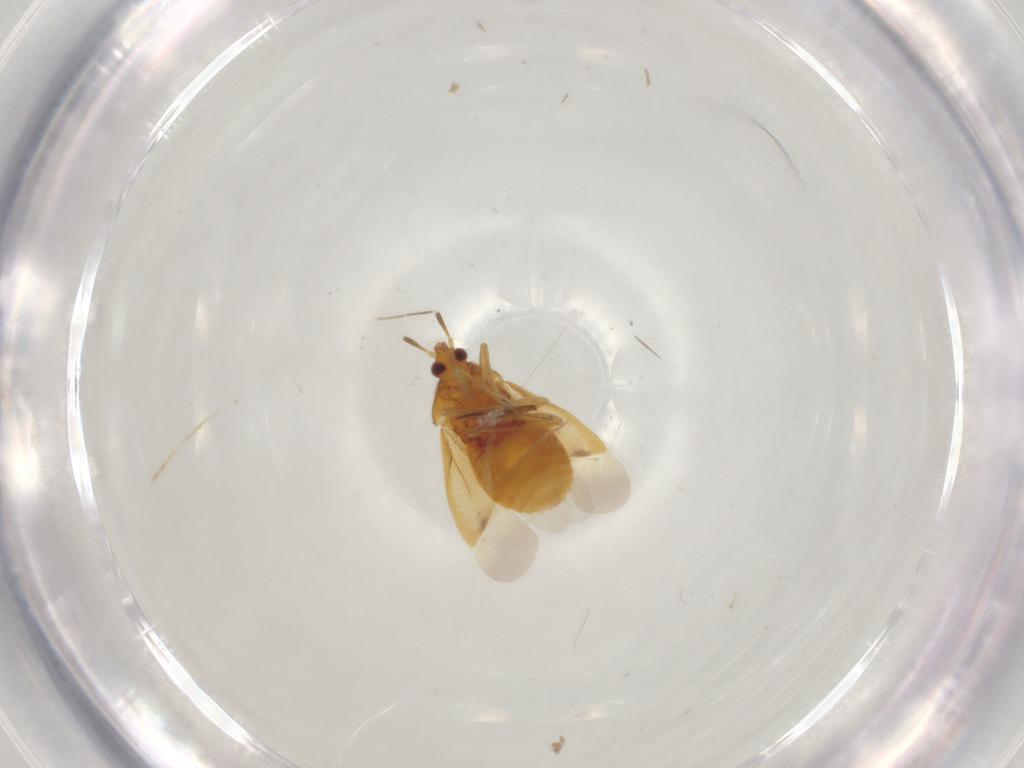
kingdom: Animalia
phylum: Arthropoda
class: Insecta
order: Diptera
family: Cecidomyiidae
